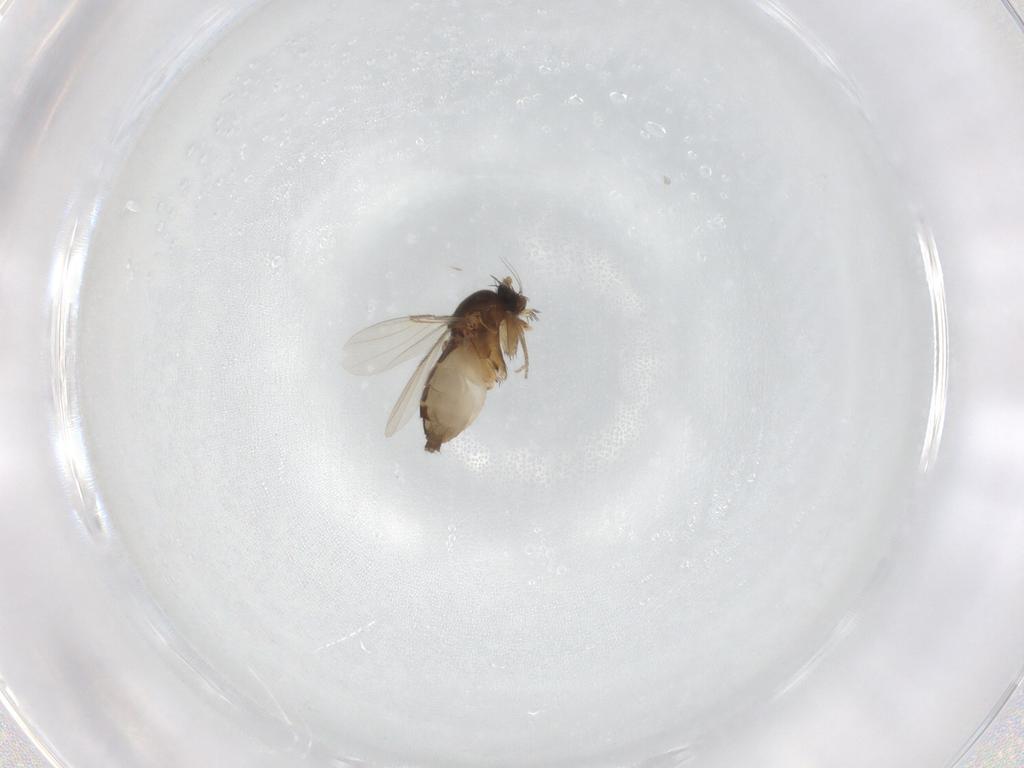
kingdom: Animalia
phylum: Arthropoda
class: Insecta
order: Diptera
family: Phoridae
